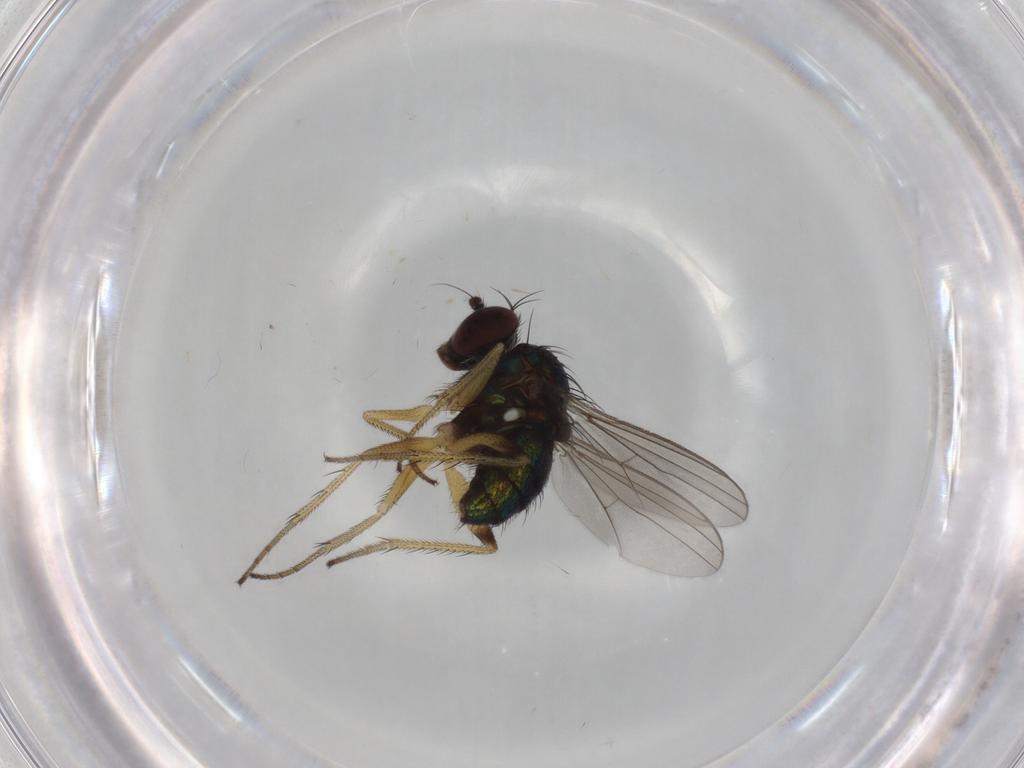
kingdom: Animalia
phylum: Arthropoda
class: Insecta
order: Diptera
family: Dolichopodidae
